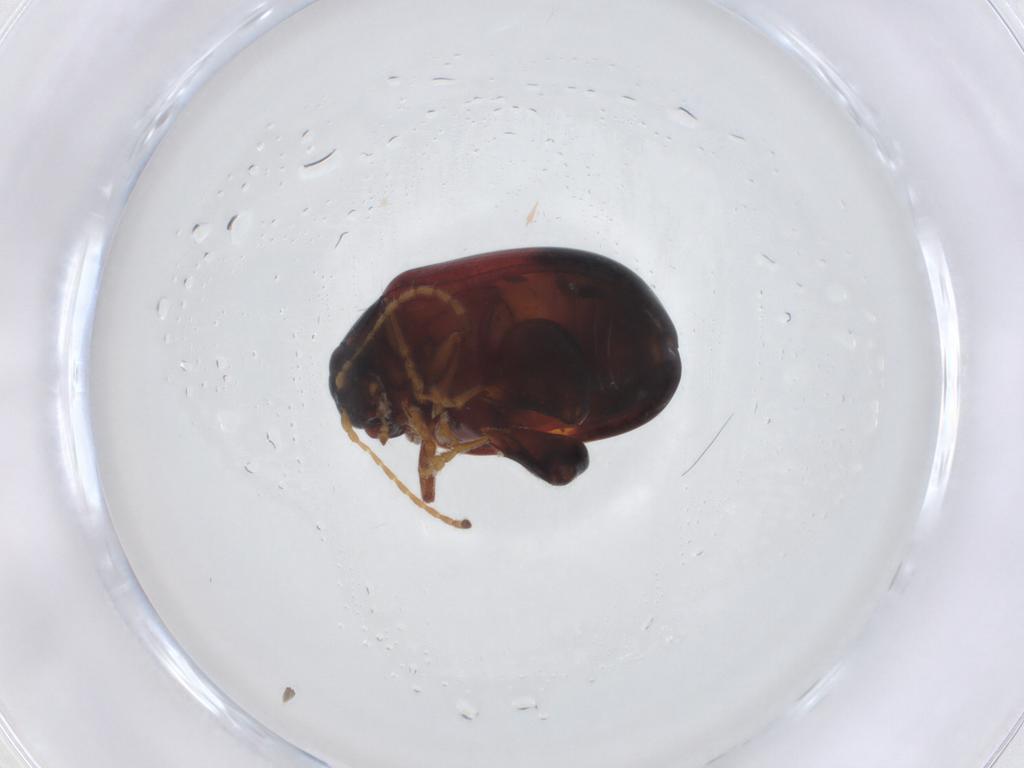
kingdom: Animalia
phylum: Arthropoda
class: Insecta
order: Coleoptera
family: Chrysomelidae
